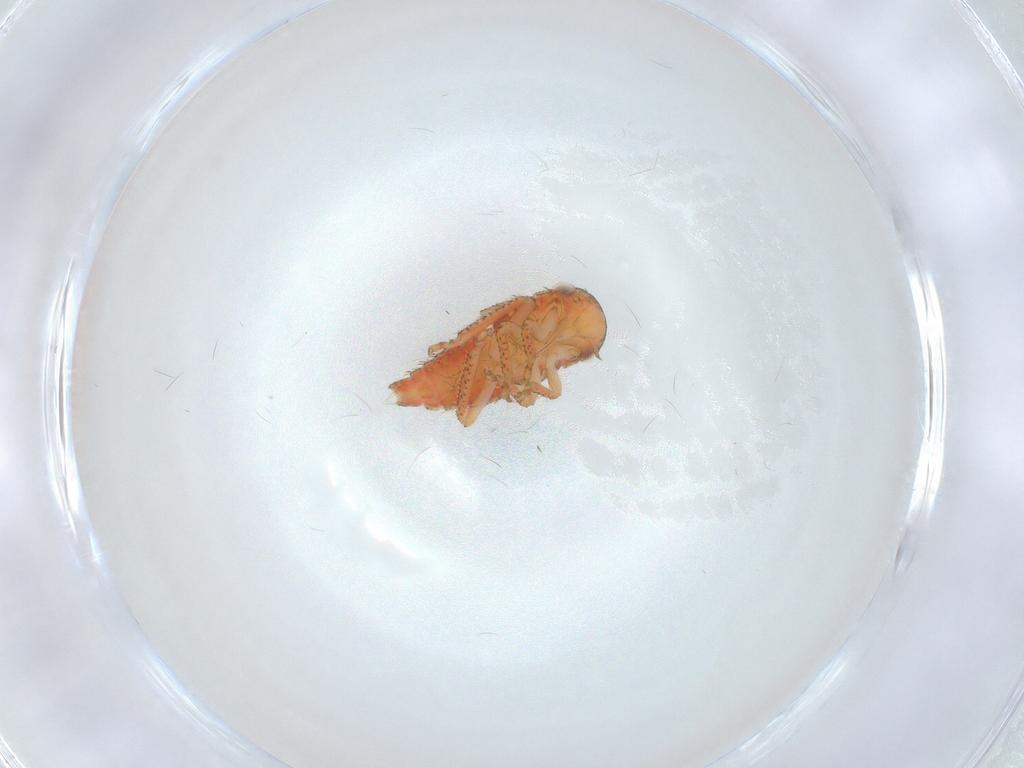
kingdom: Animalia
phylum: Arthropoda
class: Insecta
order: Hemiptera
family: Cicadellidae
